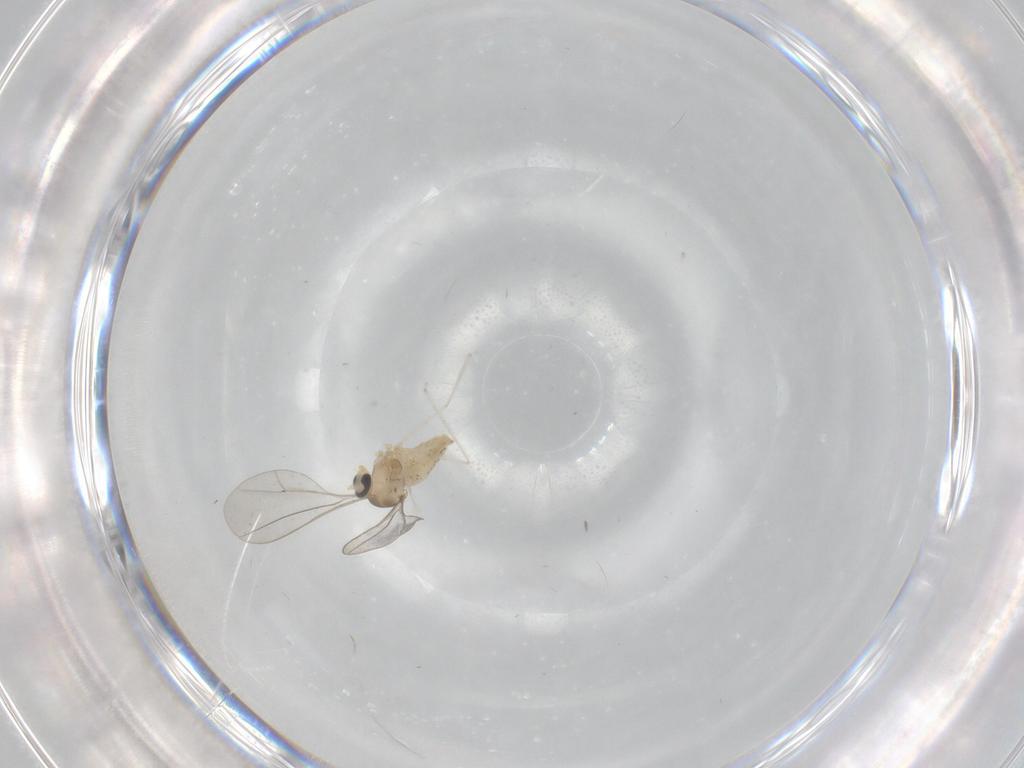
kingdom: Animalia
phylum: Arthropoda
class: Insecta
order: Diptera
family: Cecidomyiidae
